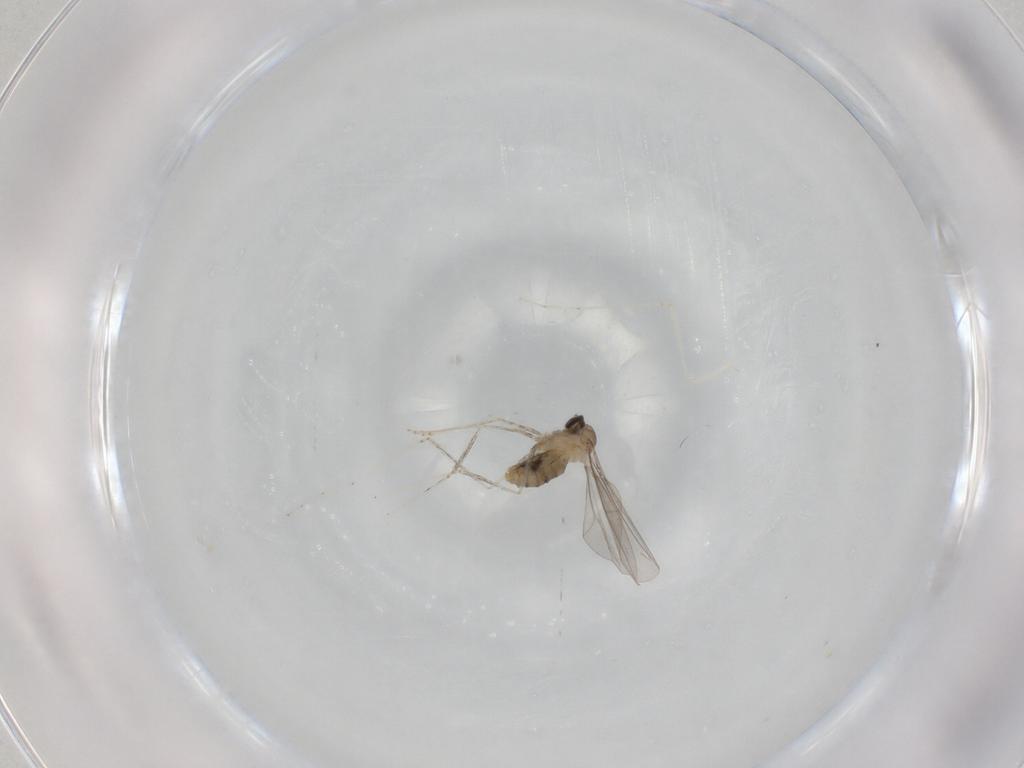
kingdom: Animalia
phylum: Arthropoda
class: Insecta
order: Diptera
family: Cecidomyiidae
